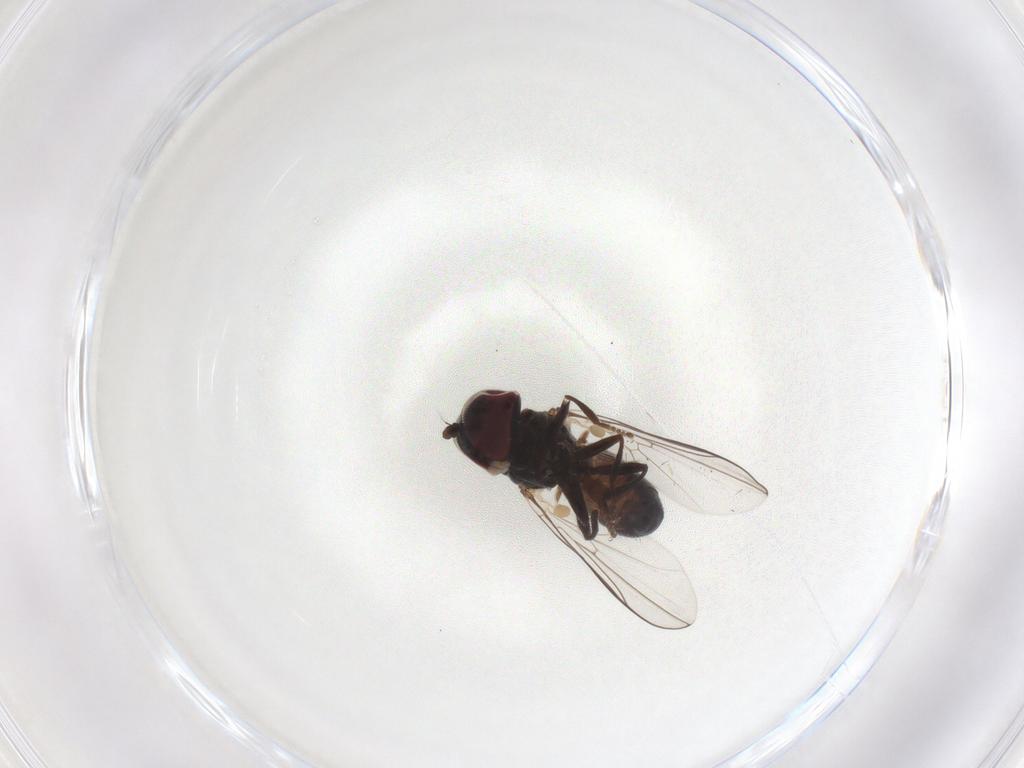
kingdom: Animalia
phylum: Arthropoda
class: Insecta
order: Diptera
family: Pipunculidae
